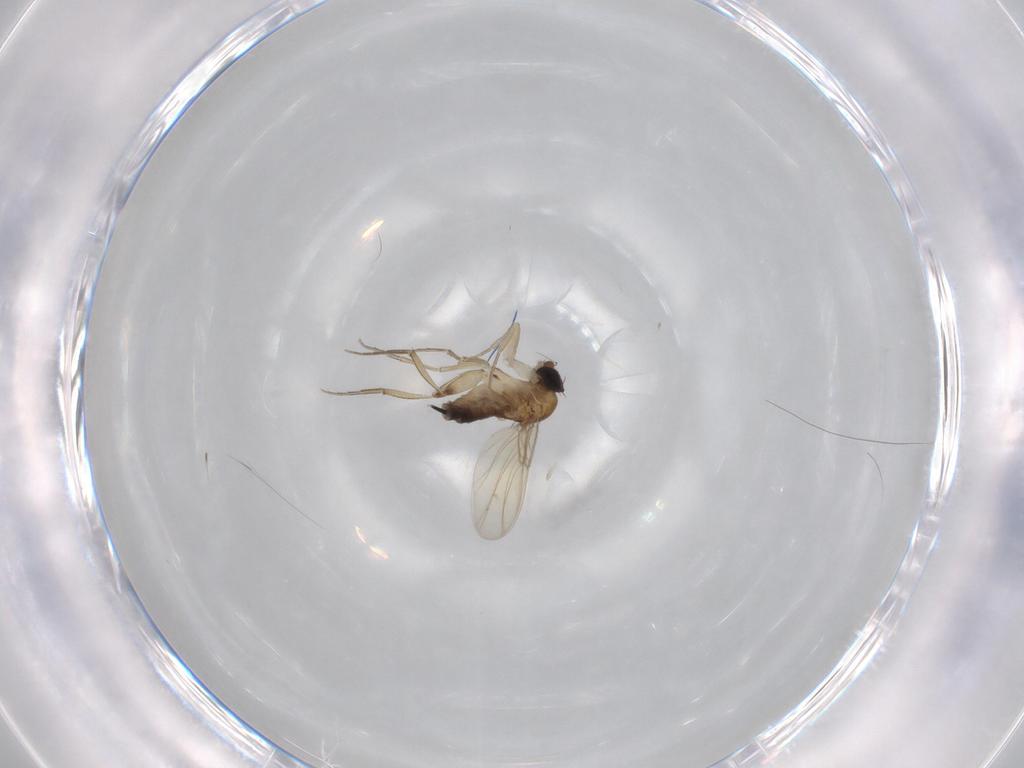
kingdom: Animalia
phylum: Arthropoda
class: Insecta
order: Diptera
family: Phoridae
